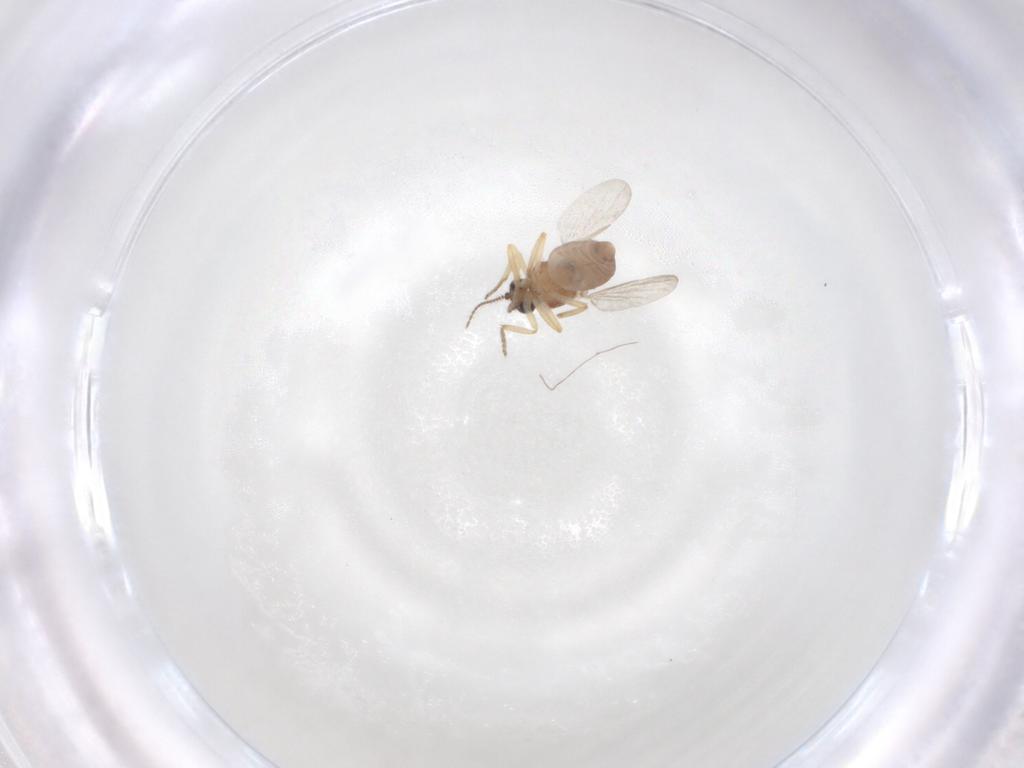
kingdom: Animalia
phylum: Arthropoda
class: Insecta
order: Diptera
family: Ceratopogonidae
